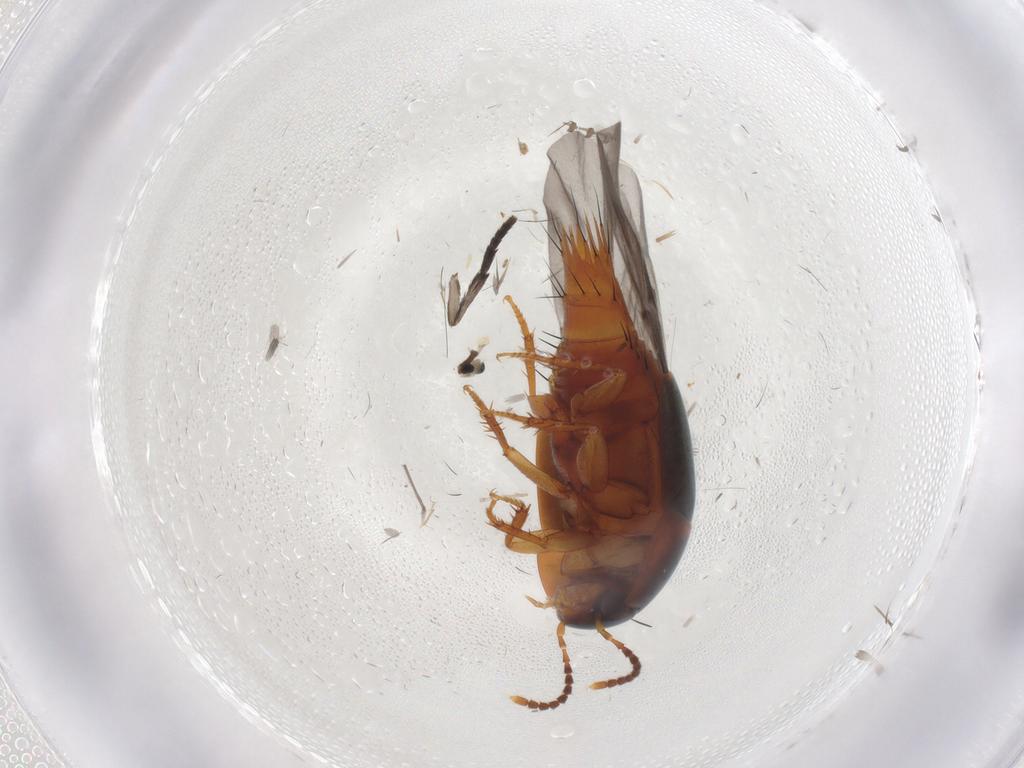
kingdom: Animalia
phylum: Arthropoda
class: Insecta
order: Coleoptera
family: Staphylinidae
